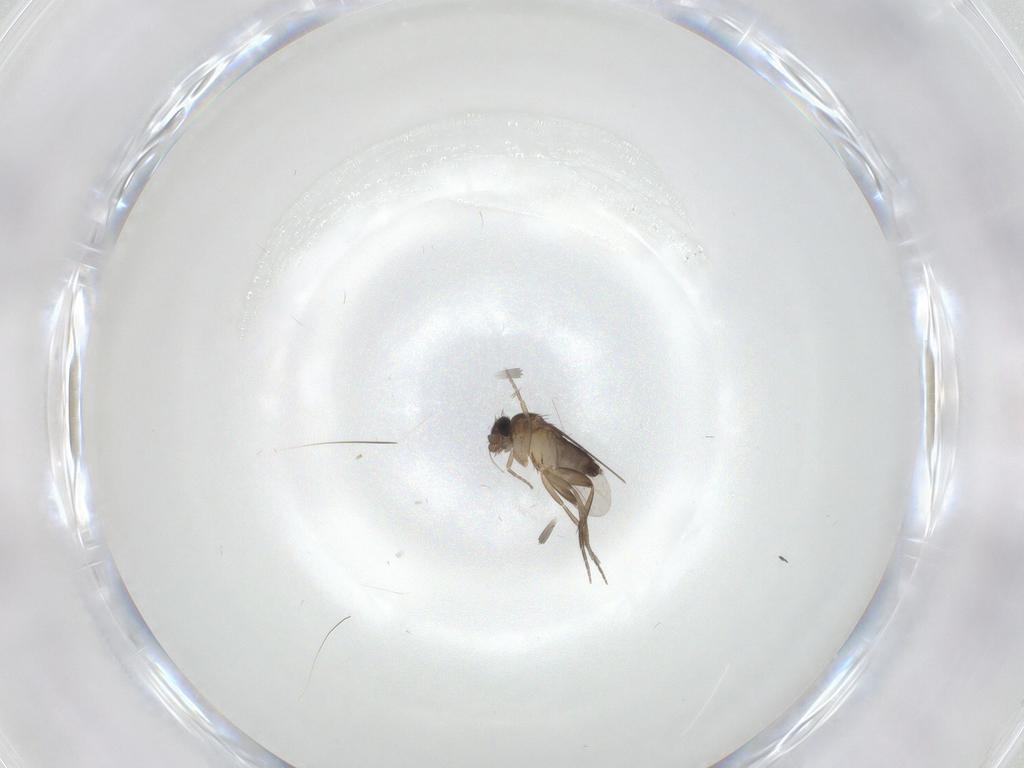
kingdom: Animalia
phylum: Arthropoda
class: Insecta
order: Diptera
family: Phoridae
